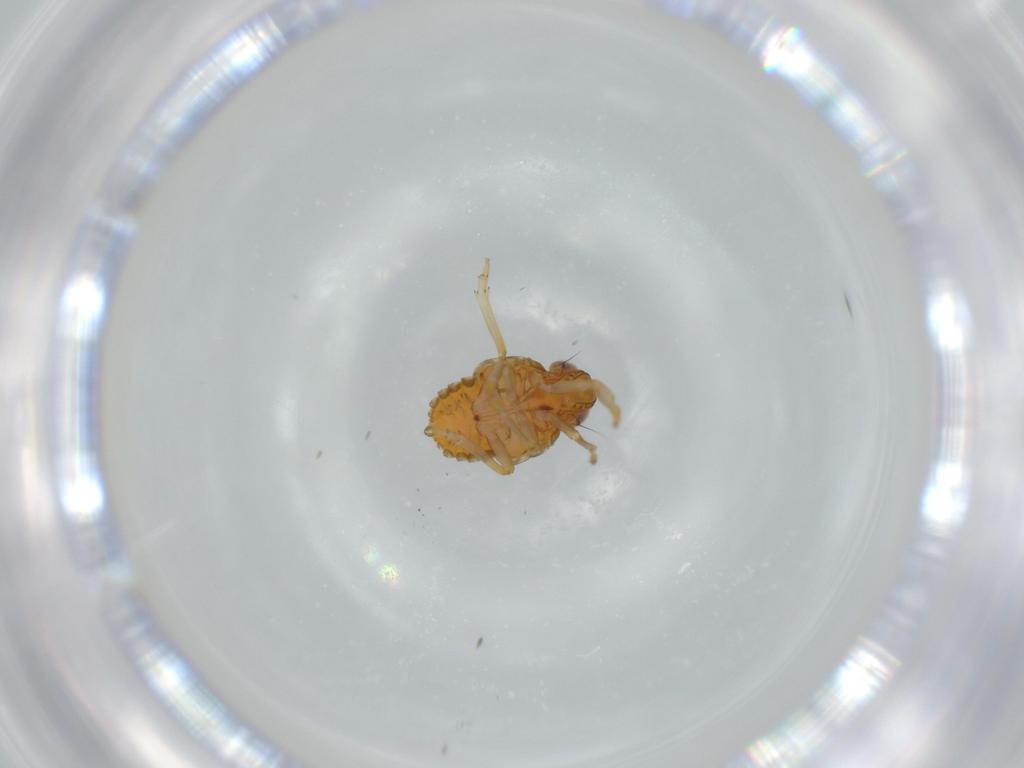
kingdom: Animalia
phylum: Arthropoda
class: Insecta
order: Hemiptera
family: Issidae
